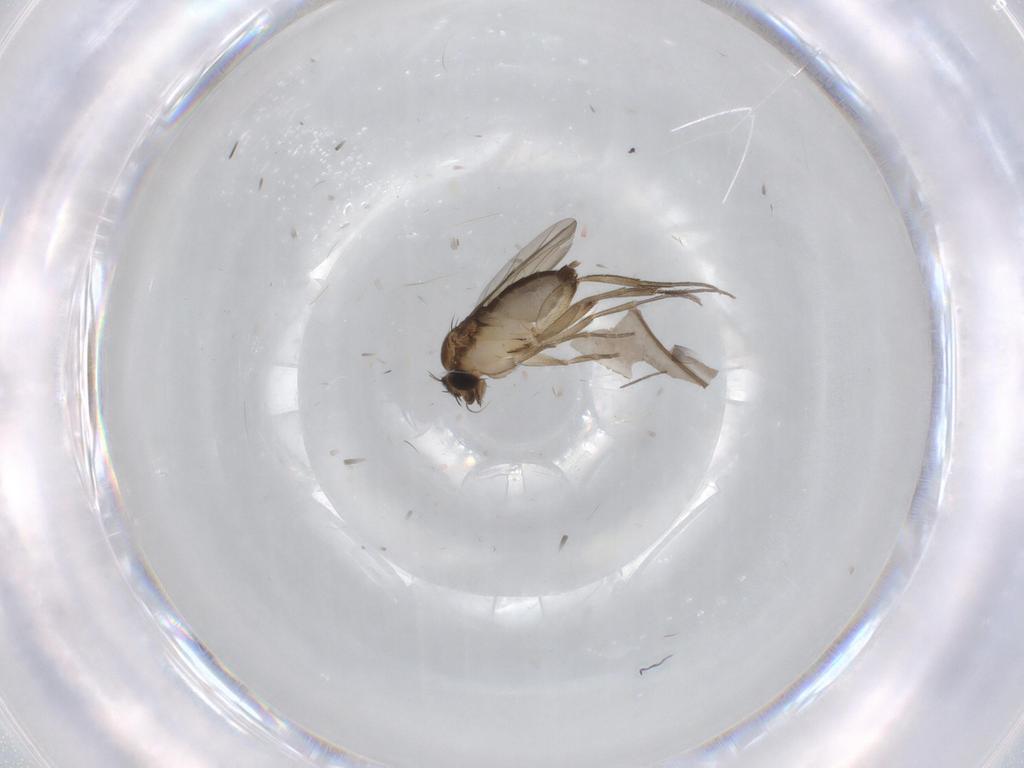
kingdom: Animalia
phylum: Arthropoda
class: Insecta
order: Diptera
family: Phoridae
